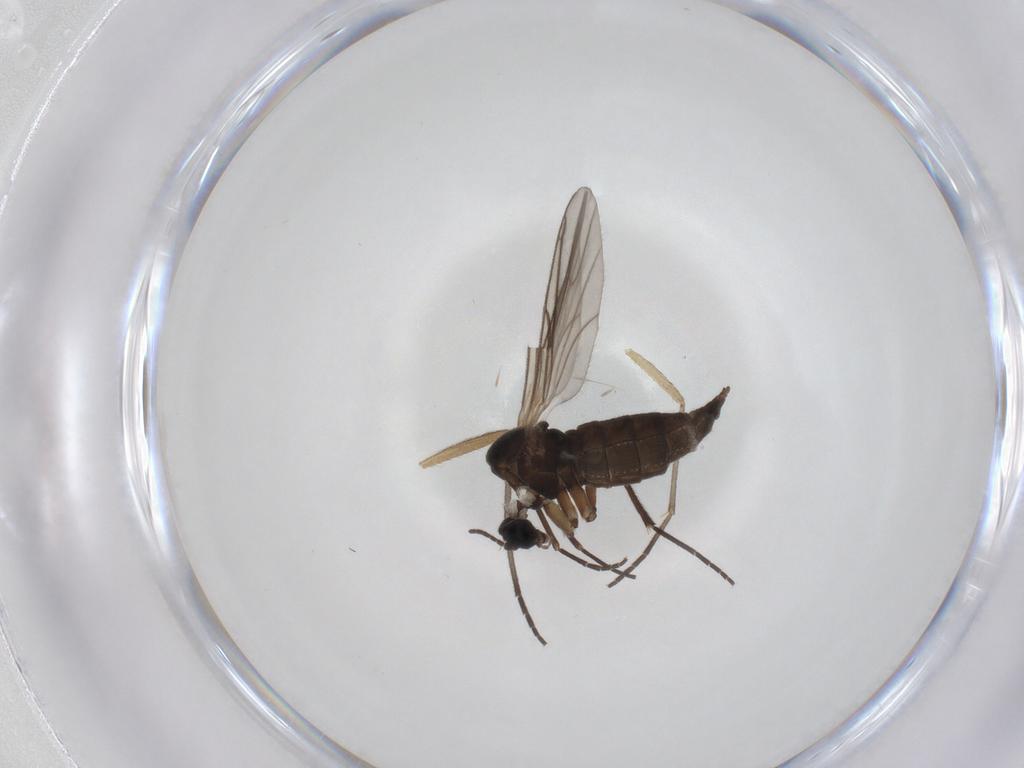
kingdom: Animalia
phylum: Arthropoda
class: Insecta
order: Diptera
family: Sciaridae
